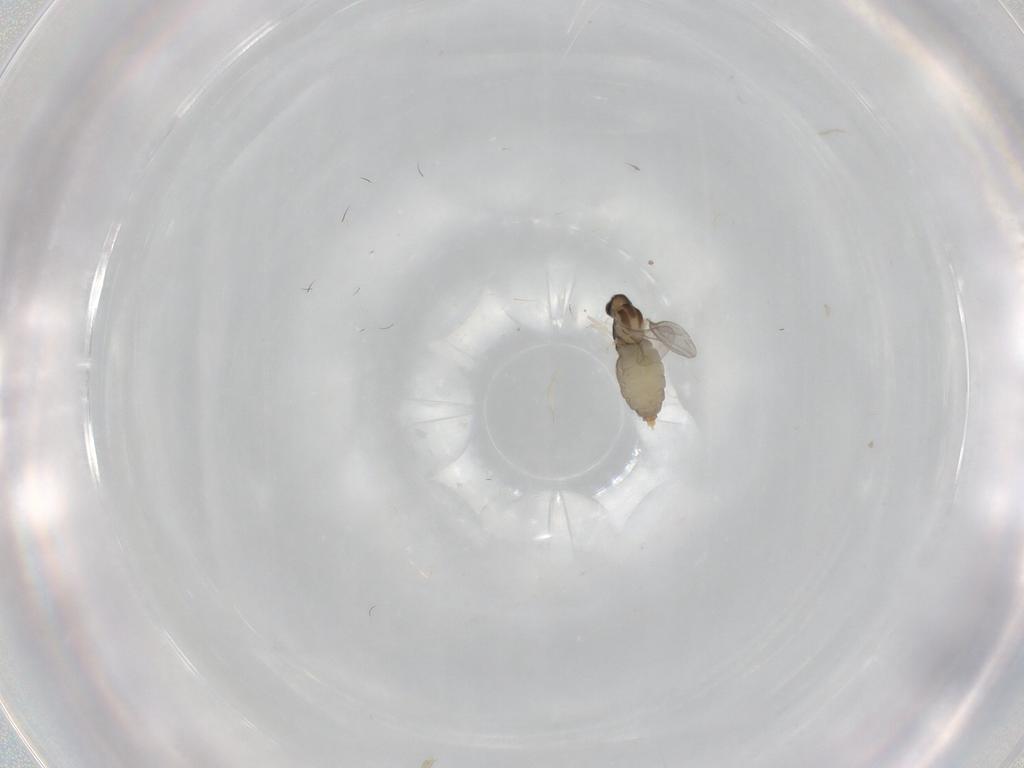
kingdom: Animalia
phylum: Arthropoda
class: Insecta
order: Diptera
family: Cecidomyiidae
